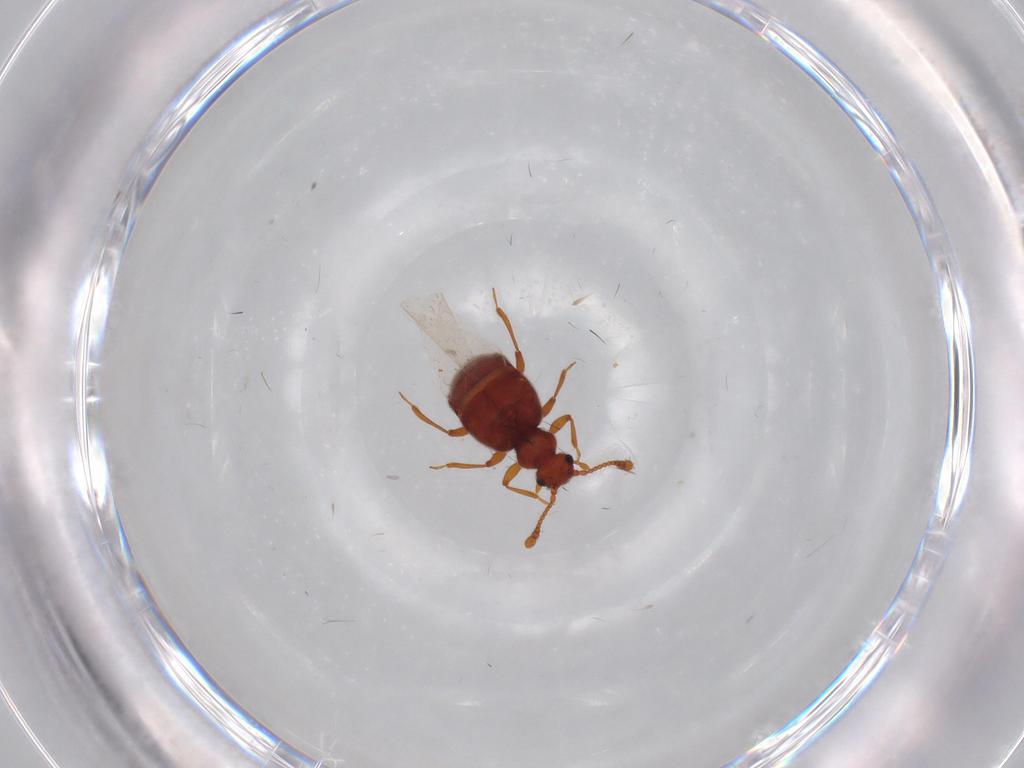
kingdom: Animalia
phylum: Arthropoda
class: Insecta
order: Coleoptera
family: Staphylinidae
